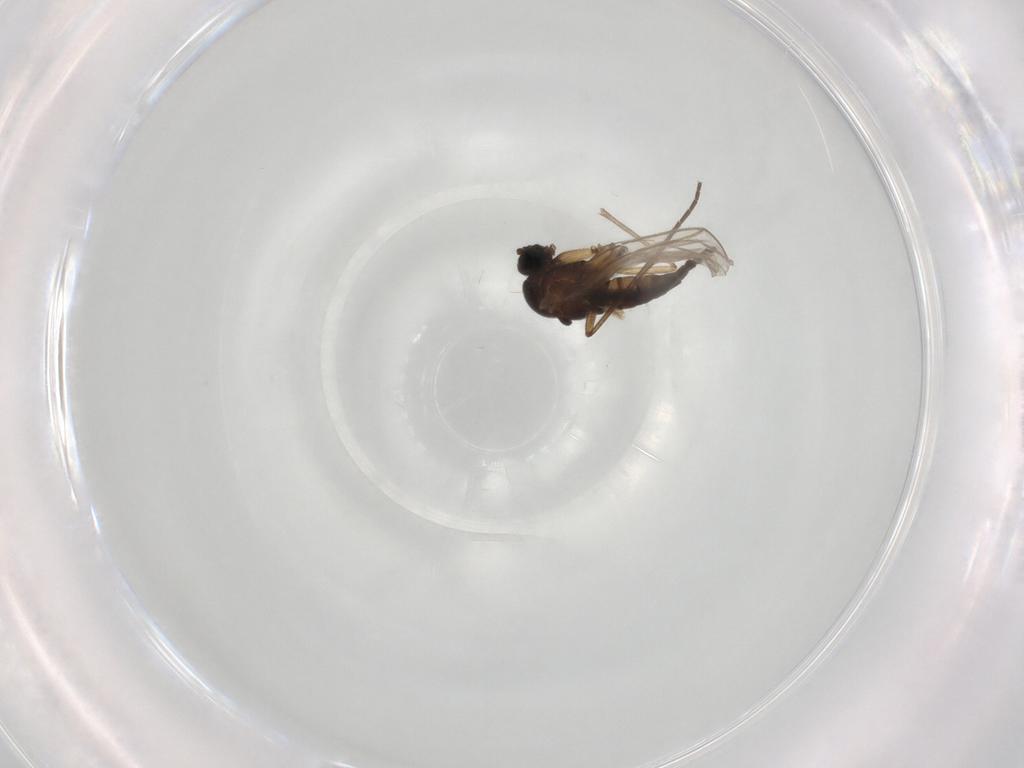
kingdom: Animalia
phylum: Arthropoda
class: Insecta
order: Diptera
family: Sciaridae
